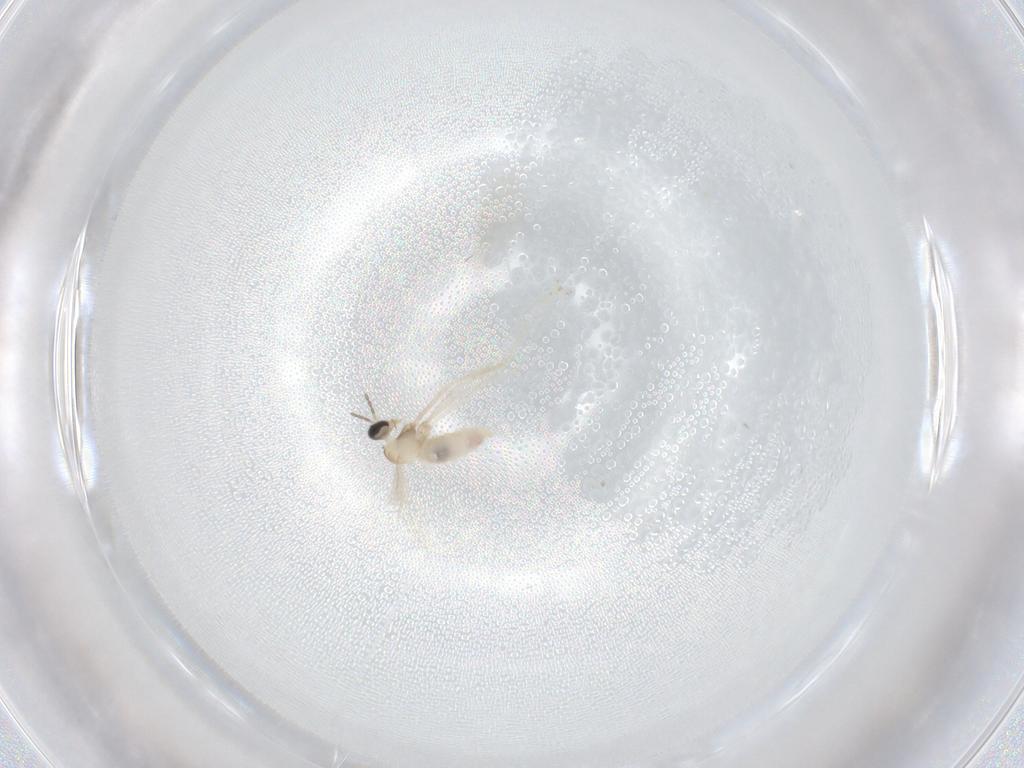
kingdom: Animalia
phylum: Arthropoda
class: Insecta
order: Diptera
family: Cecidomyiidae
